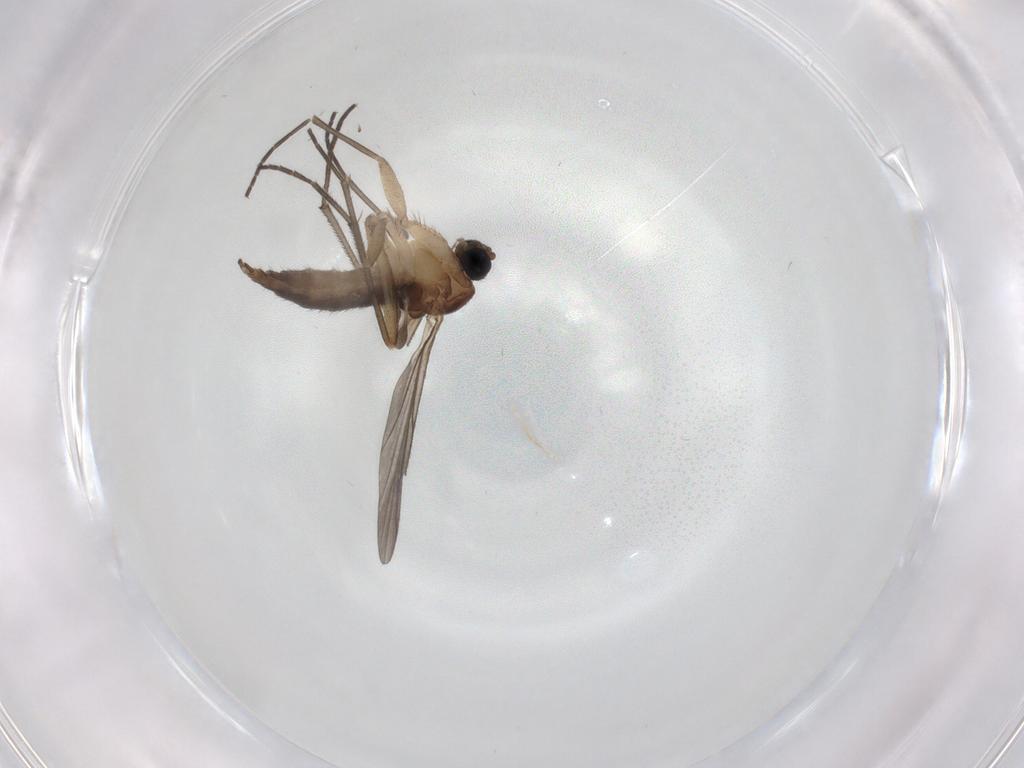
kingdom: Animalia
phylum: Arthropoda
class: Insecta
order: Diptera
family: Sciaridae
